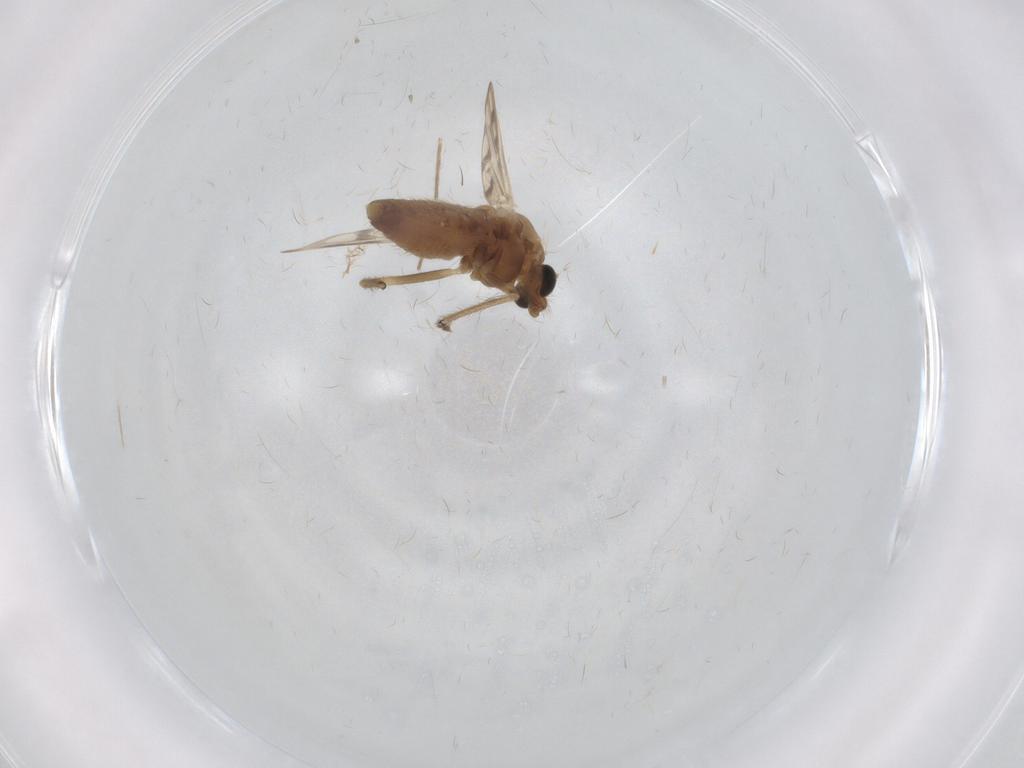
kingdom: Animalia
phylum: Arthropoda
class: Insecta
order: Diptera
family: Chironomidae
